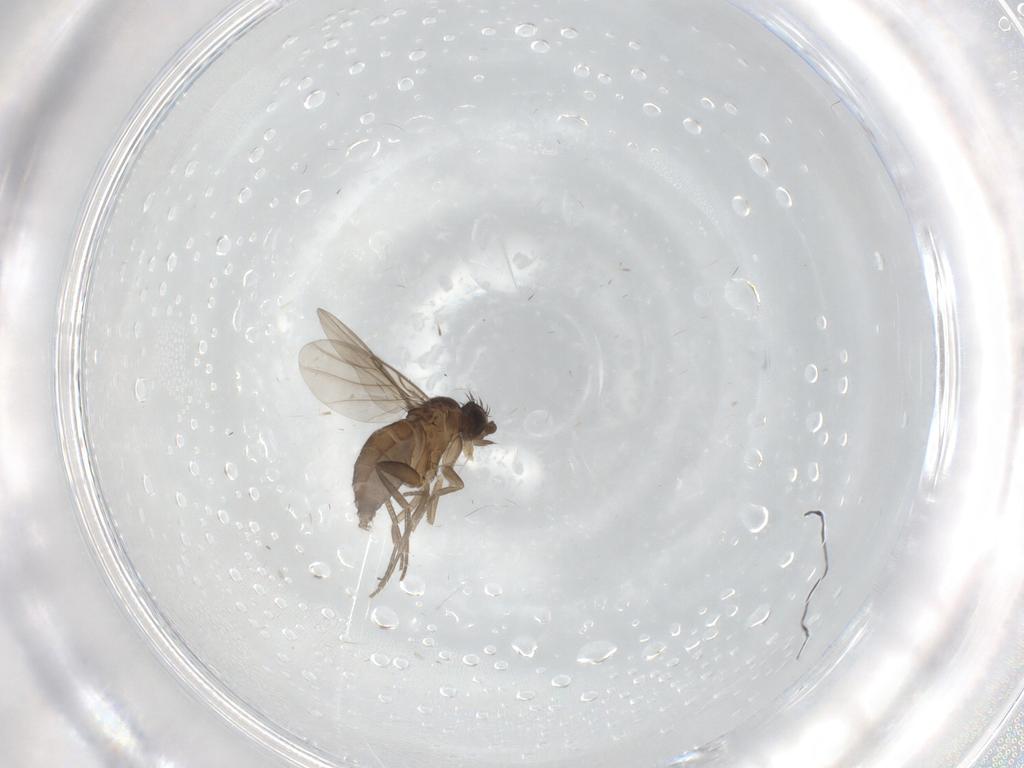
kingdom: Animalia
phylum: Arthropoda
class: Insecta
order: Diptera
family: Phoridae
